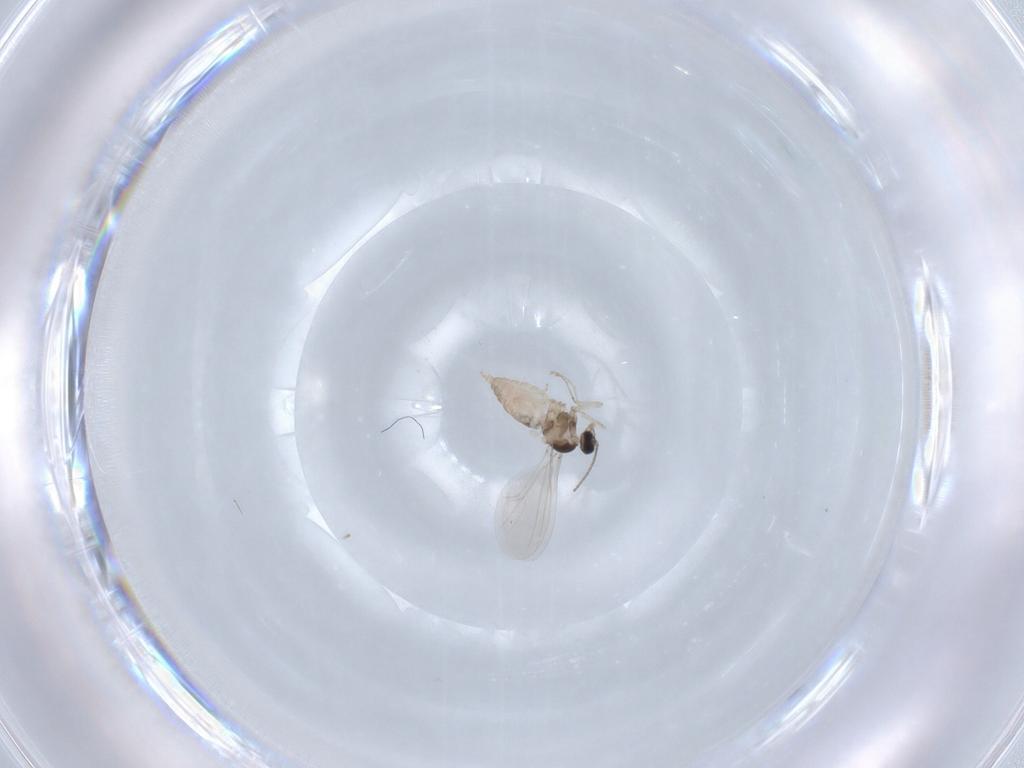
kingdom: Animalia
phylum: Arthropoda
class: Insecta
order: Diptera
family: Cecidomyiidae
